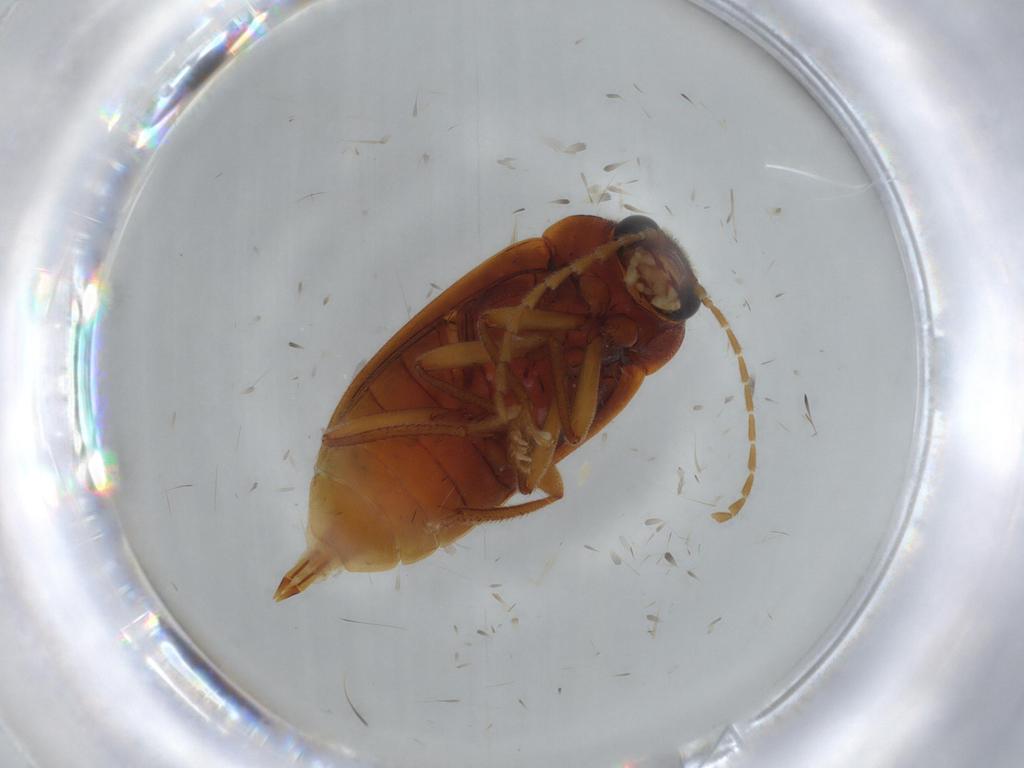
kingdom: Animalia
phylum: Arthropoda
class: Insecta
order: Coleoptera
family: Ptilodactylidae
